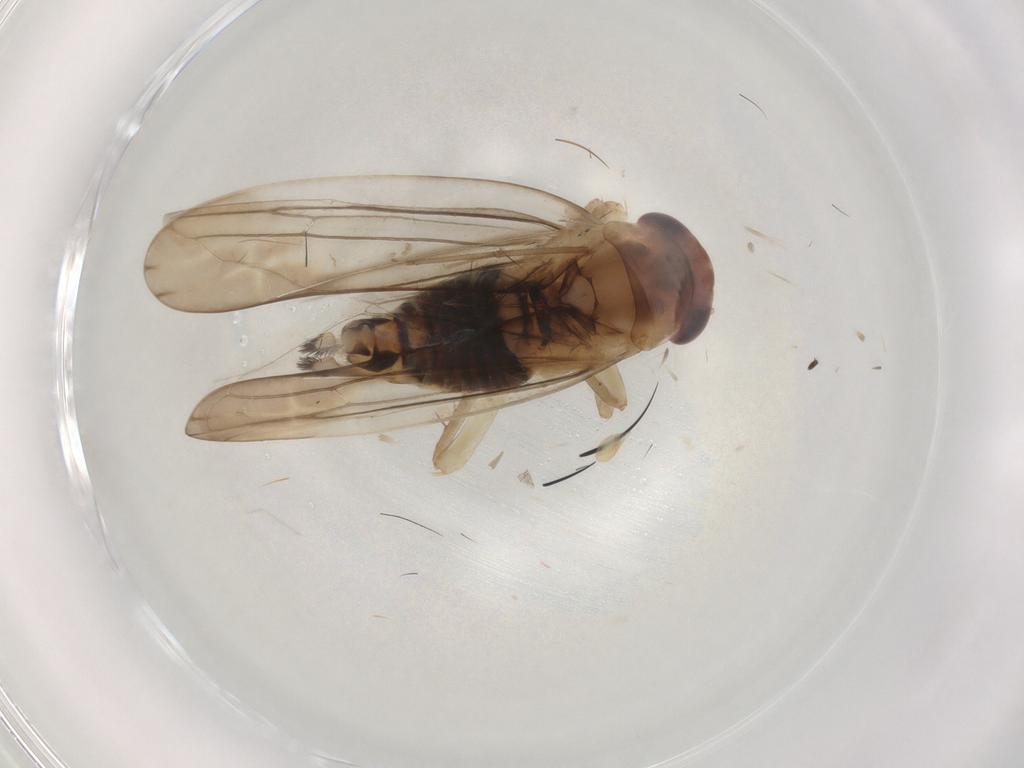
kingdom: Animalia
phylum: Arthropoda
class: Insecta
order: Hemiptera
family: Cicadellidae
